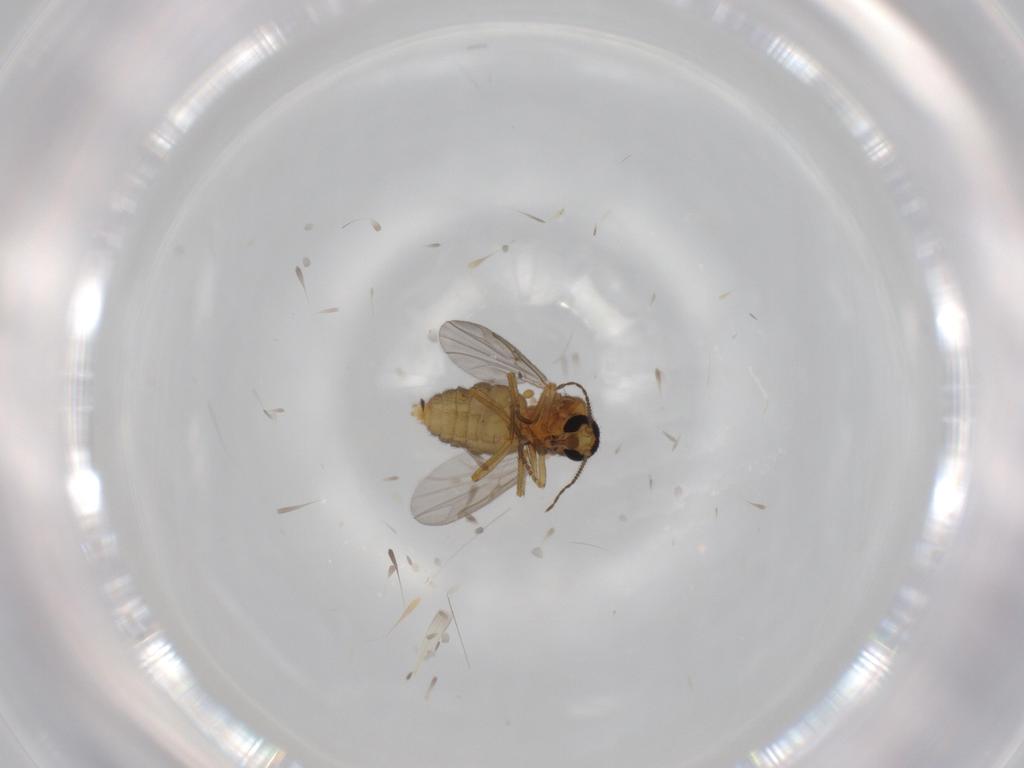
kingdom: Animalia
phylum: Arthropoda
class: Insecta
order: Diptera
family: Ceratopogonidae
